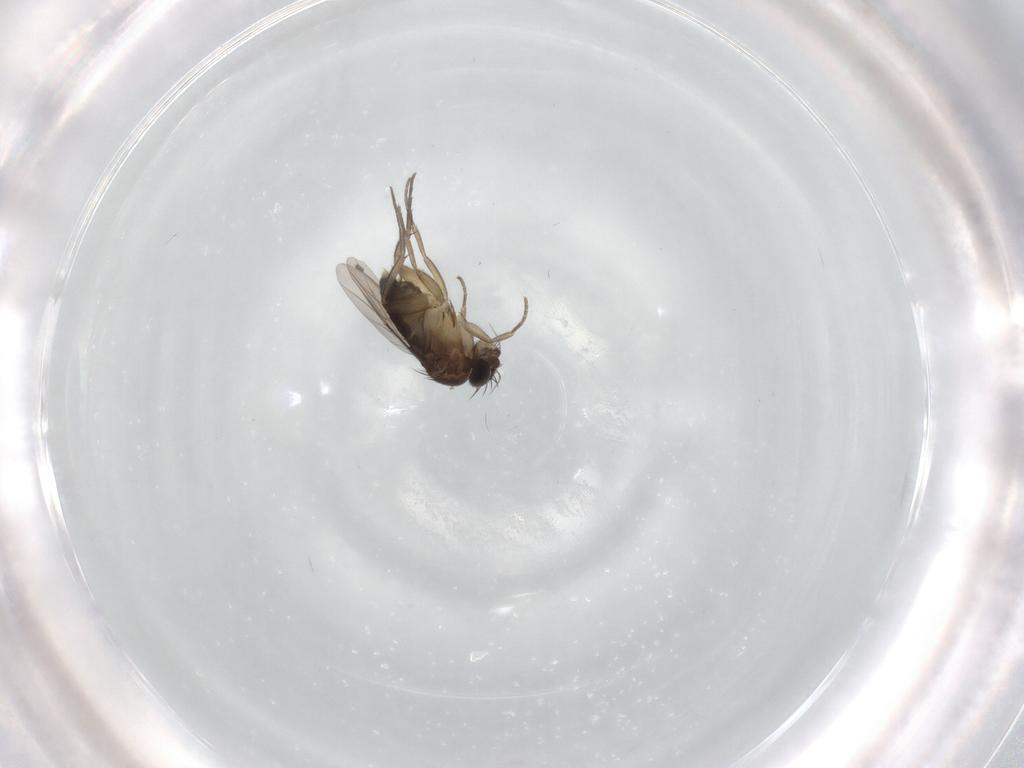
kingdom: Animalia
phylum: Arthropoda
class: Insecta
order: Diptera
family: Phoridae
